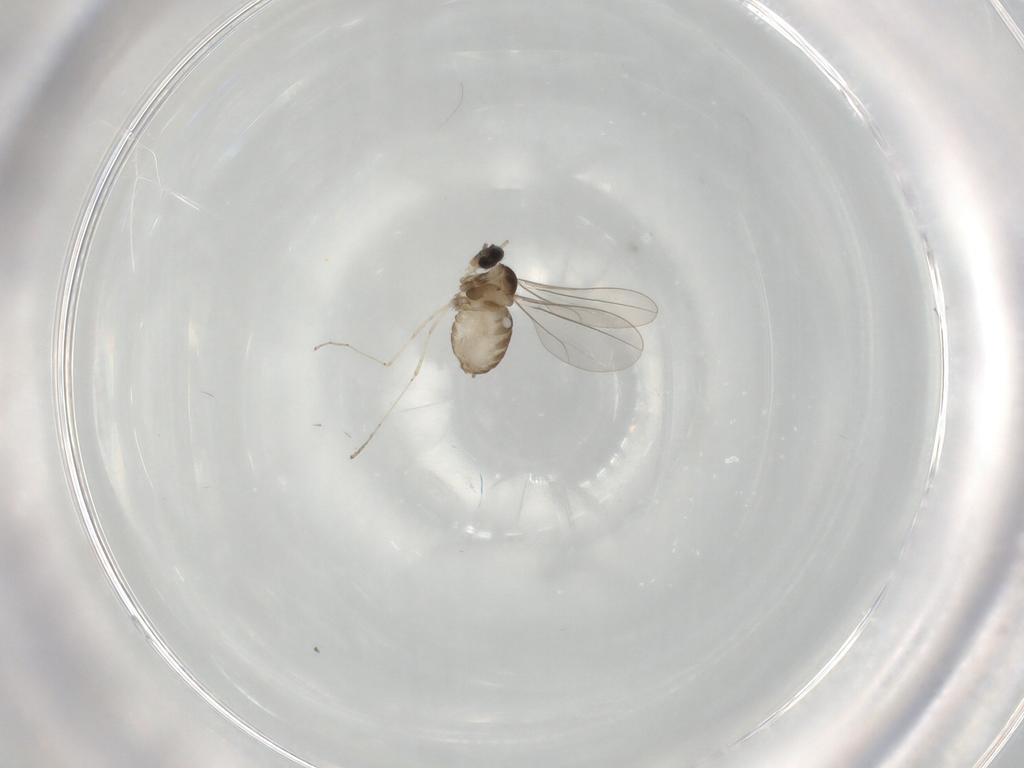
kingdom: Animalia
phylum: Arthropoda
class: Insecta
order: Diptera
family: Cecidomyiidae
